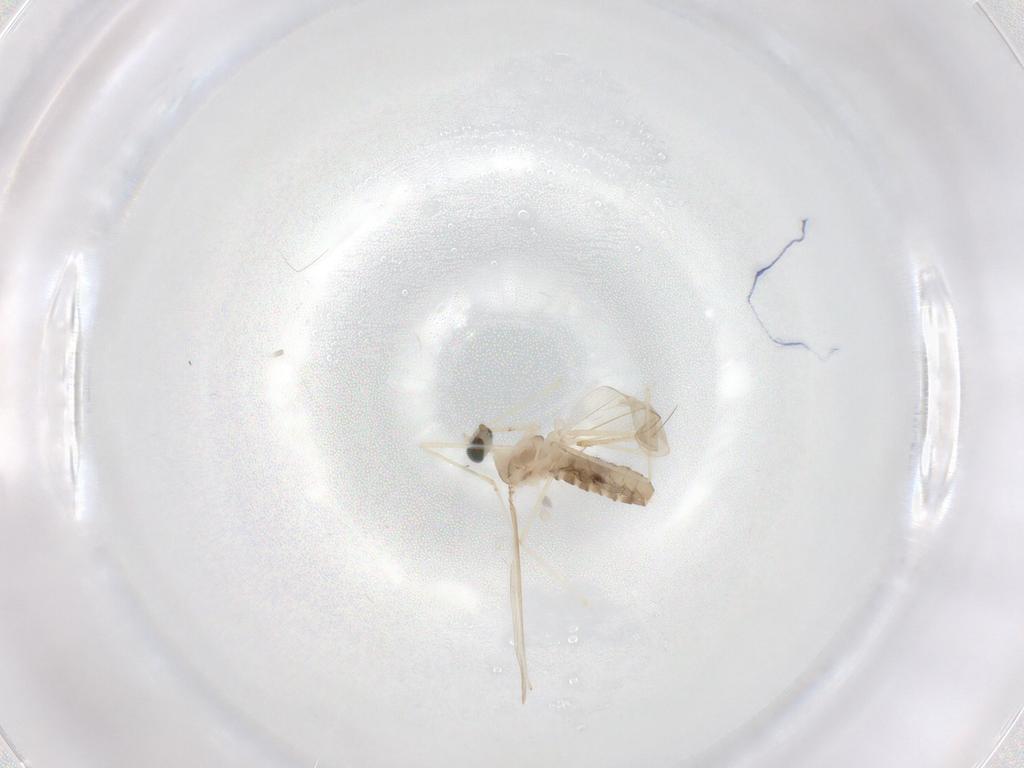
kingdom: Animalia
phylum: Arthropoda
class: Insecta
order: Diptera
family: Cecidomyiidae
